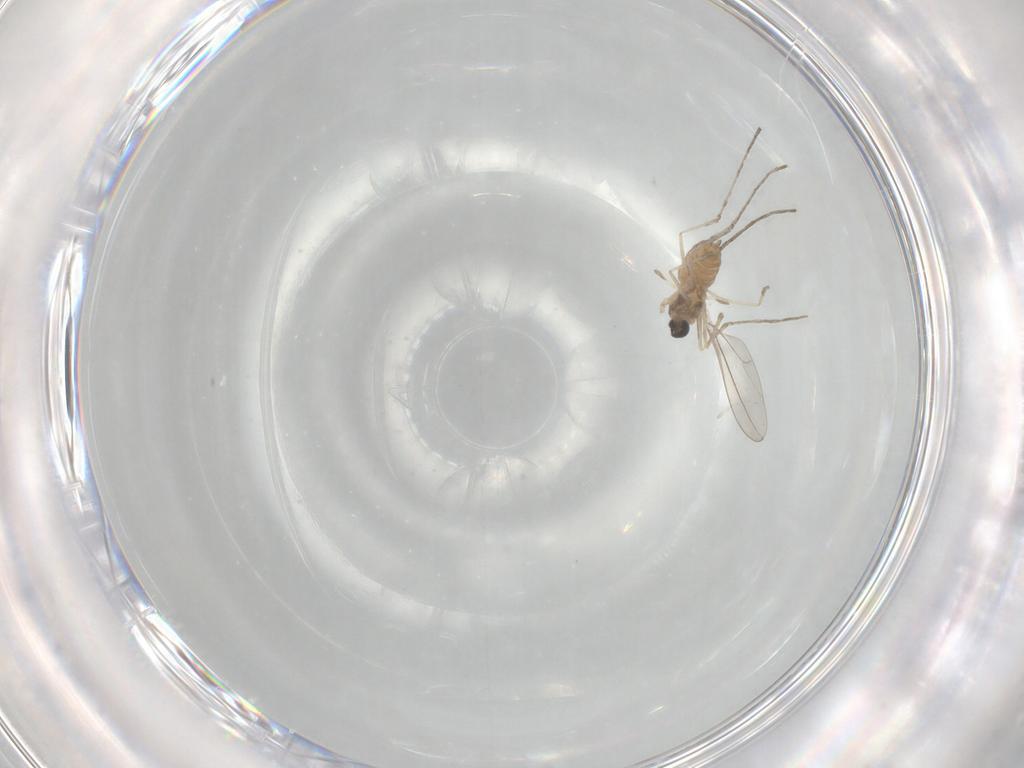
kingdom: Animalia
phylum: Arthropoda
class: Insecta
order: Diptera
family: Cecidomyiidae
